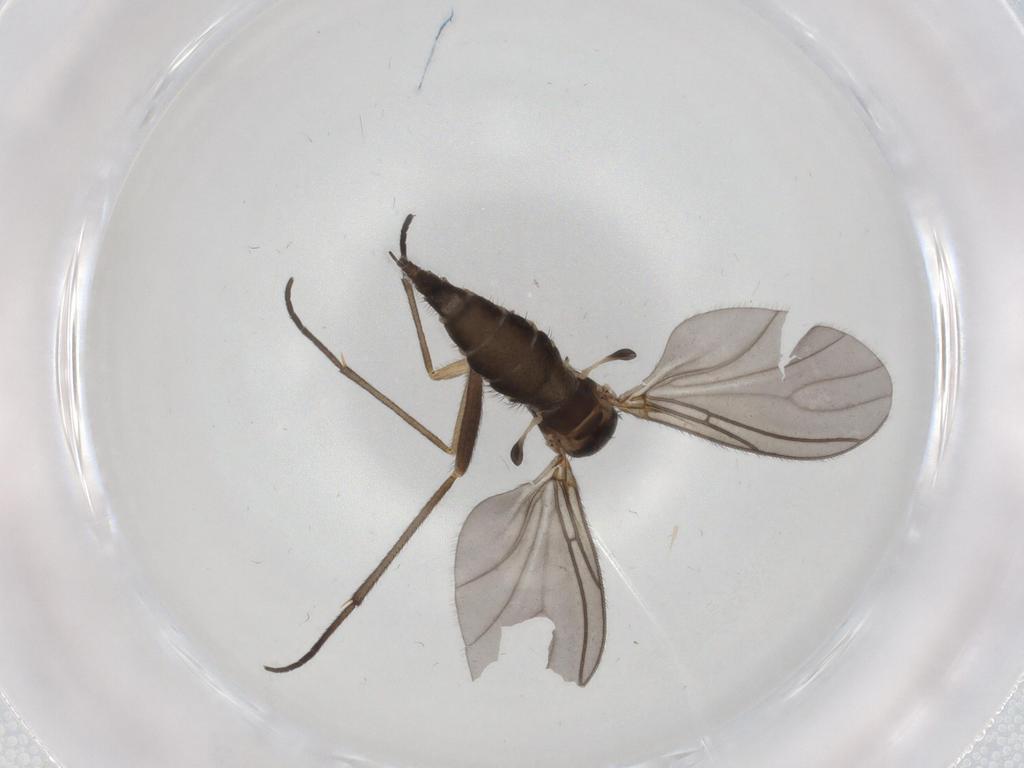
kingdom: Animalia
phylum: Arthropoda
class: Insecta
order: Diptera
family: Sciaridae
